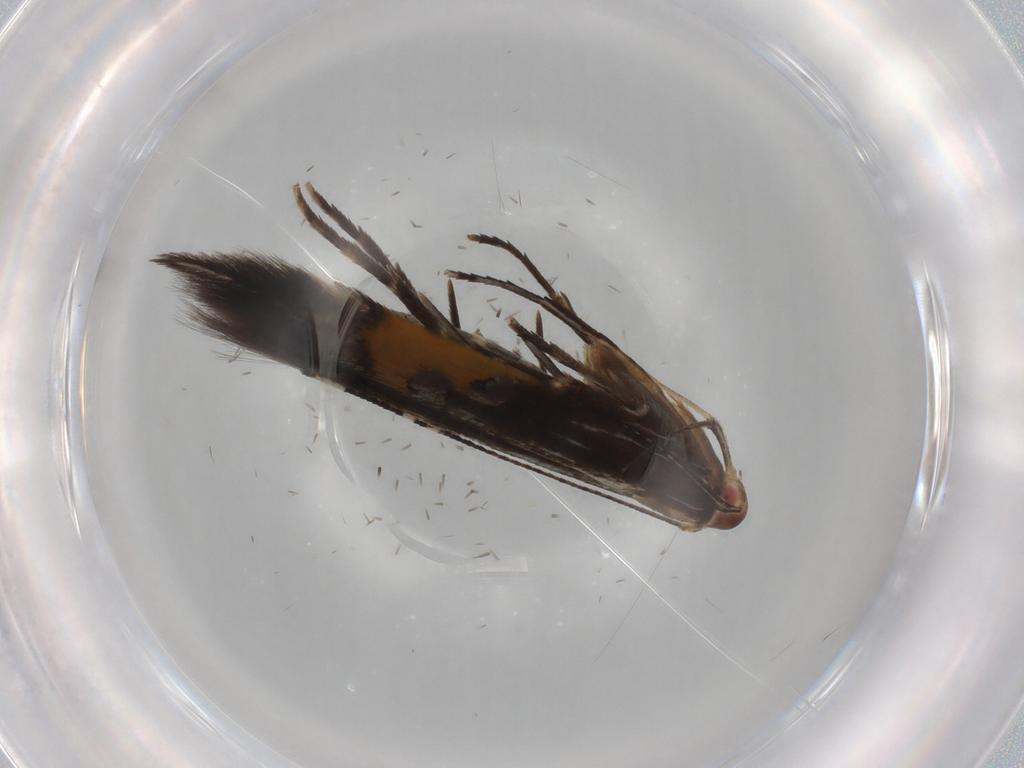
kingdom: Animalia
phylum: Arthropoda
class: Insecta
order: Lepidoptera
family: Cosmopterigidae
